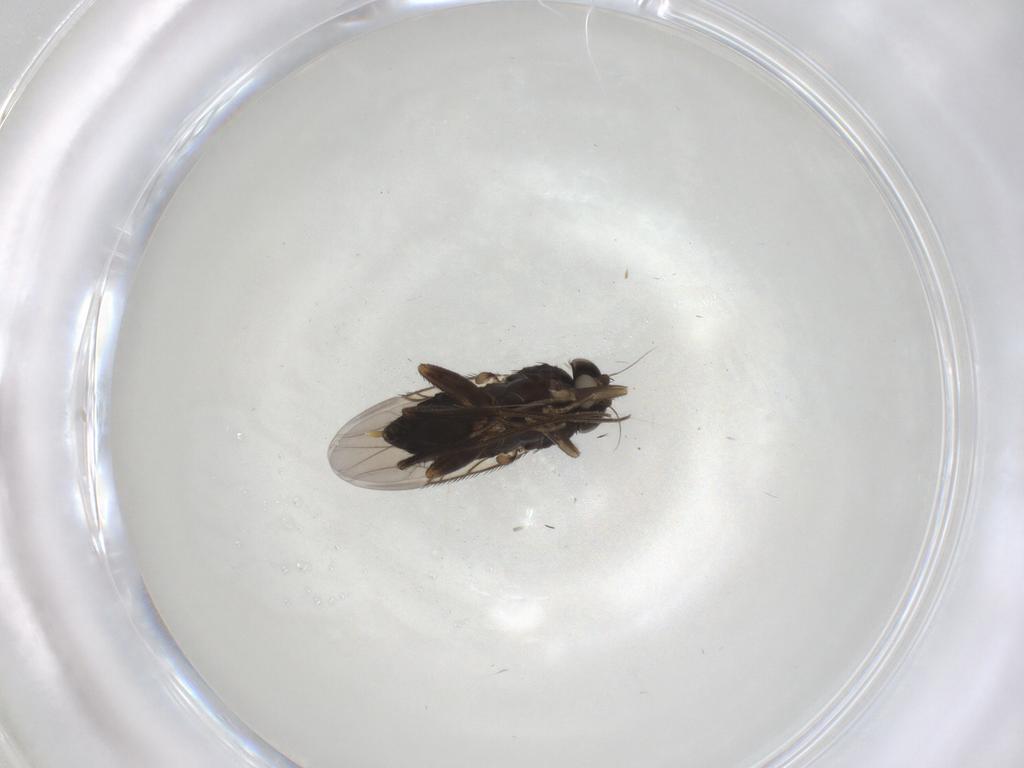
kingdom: Animalia
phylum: Arthropoda
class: Insecta
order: Diptera
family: Phoridae
